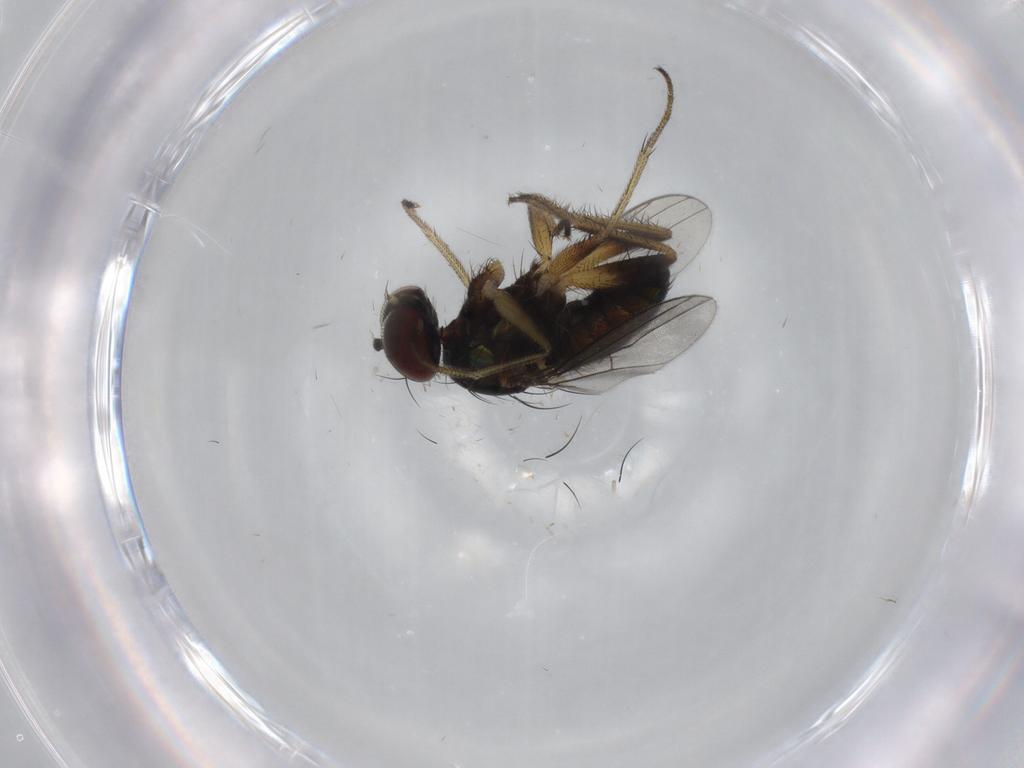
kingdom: Animalia
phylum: Arthropoda
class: Insecta
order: Diptera
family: Dolichopodidae
